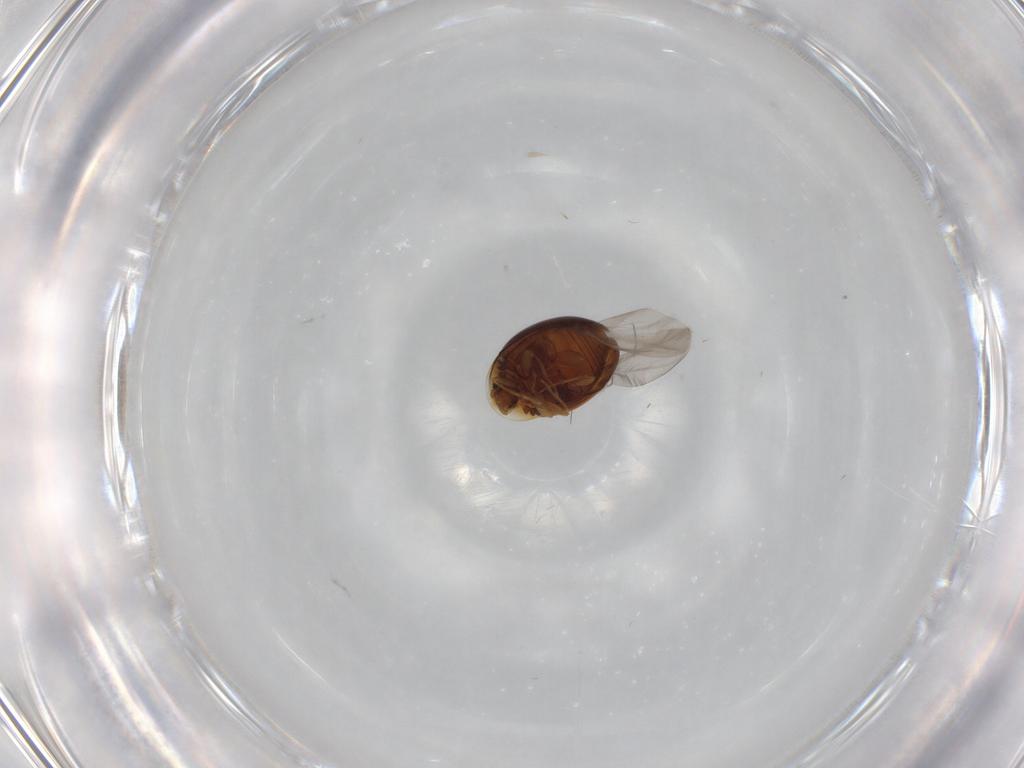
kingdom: Animalia
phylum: Arthropoda
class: Insecta
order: Coleoptera
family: Corylophidae
